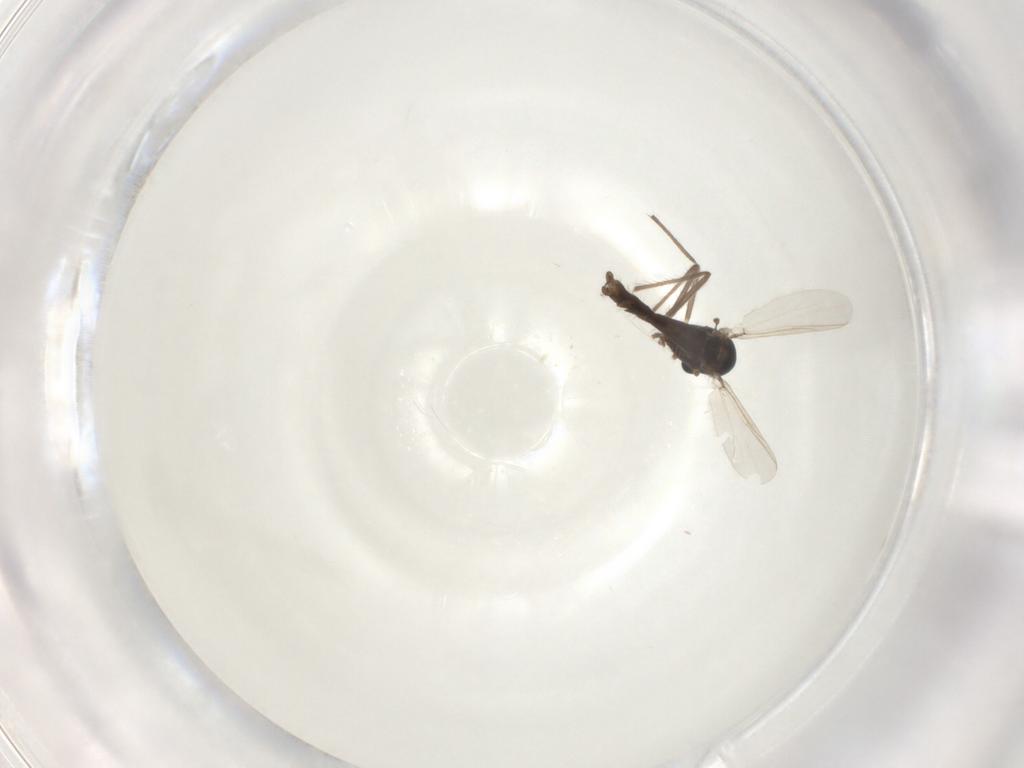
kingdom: Animalia
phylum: Arthropoda
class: Insecta
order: Diptera
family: Chironomidae
